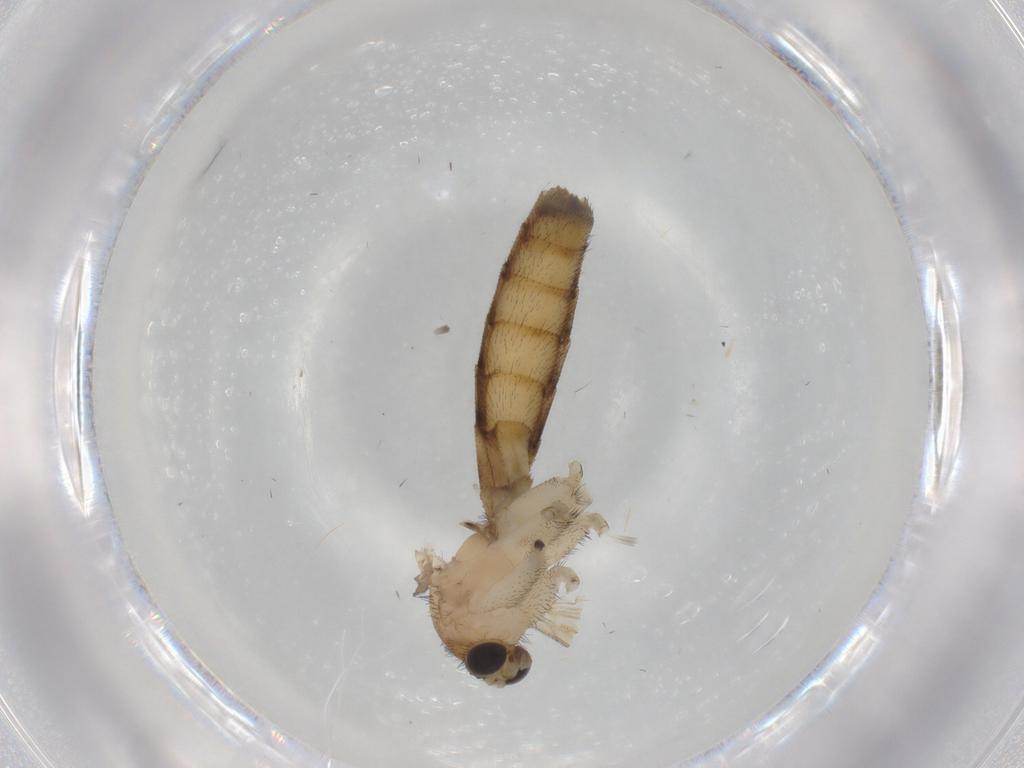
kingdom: Animalia
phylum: Arthropoda
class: Insecta
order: Diptera
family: Keroplatidae
